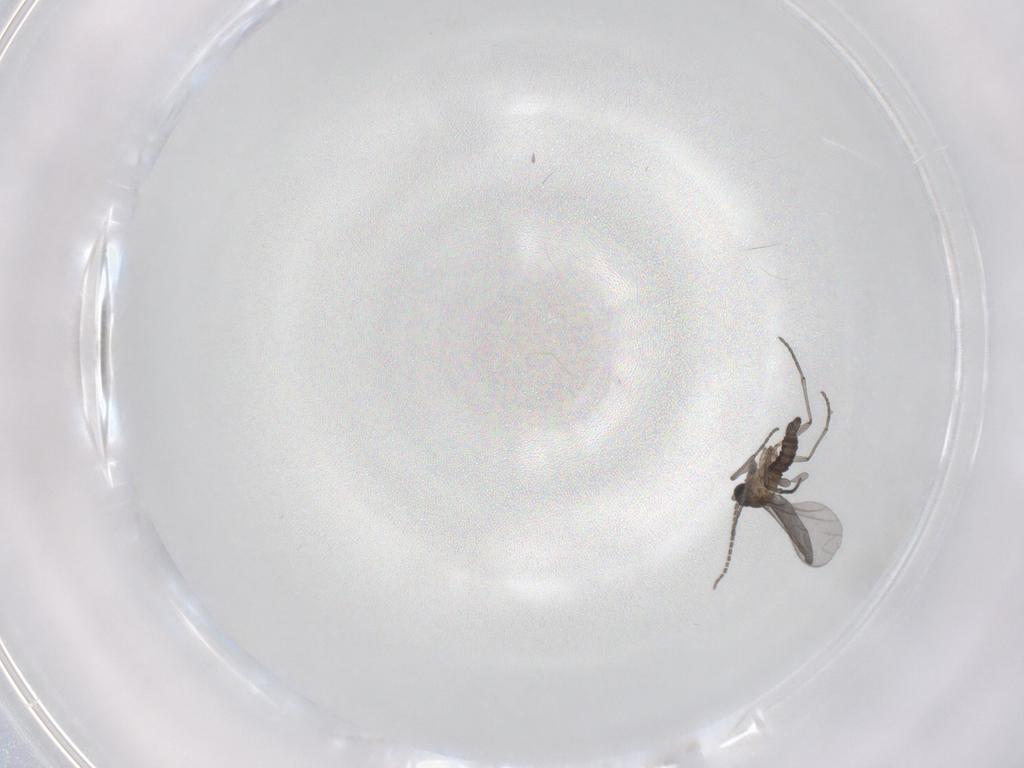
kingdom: Animalia
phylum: Arthropoda
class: Insecta
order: Diptera
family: Sciaridae
